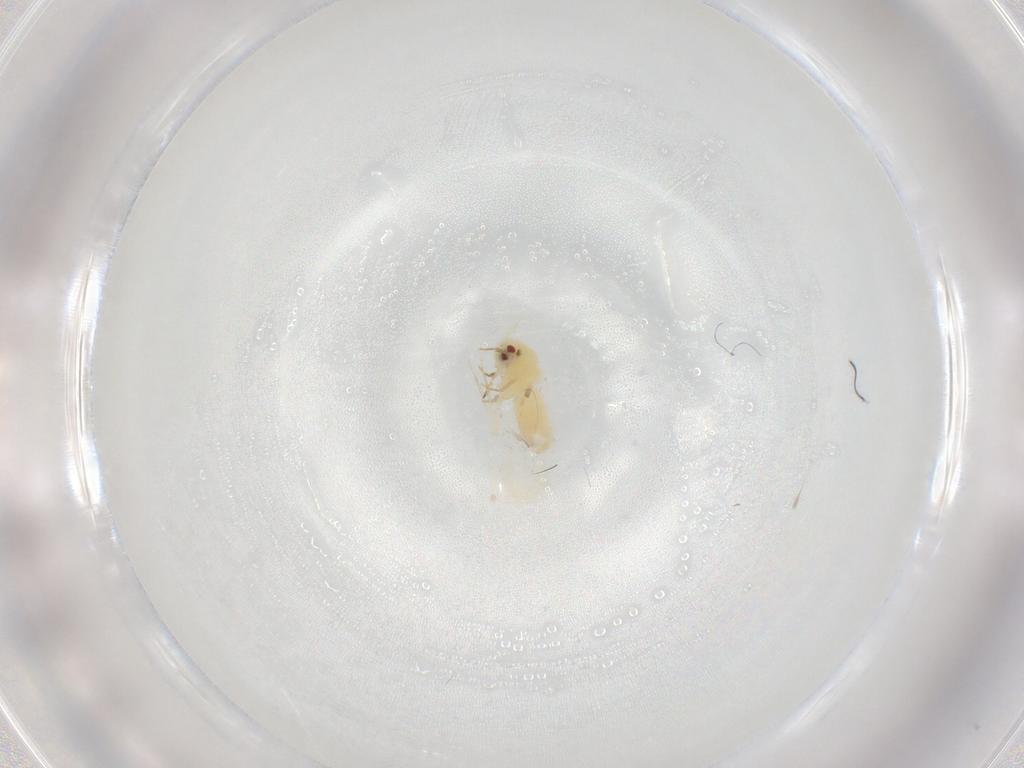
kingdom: Animalia
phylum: Arthropoda
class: Insecta
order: Hemiptera
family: Aleyrodidae
